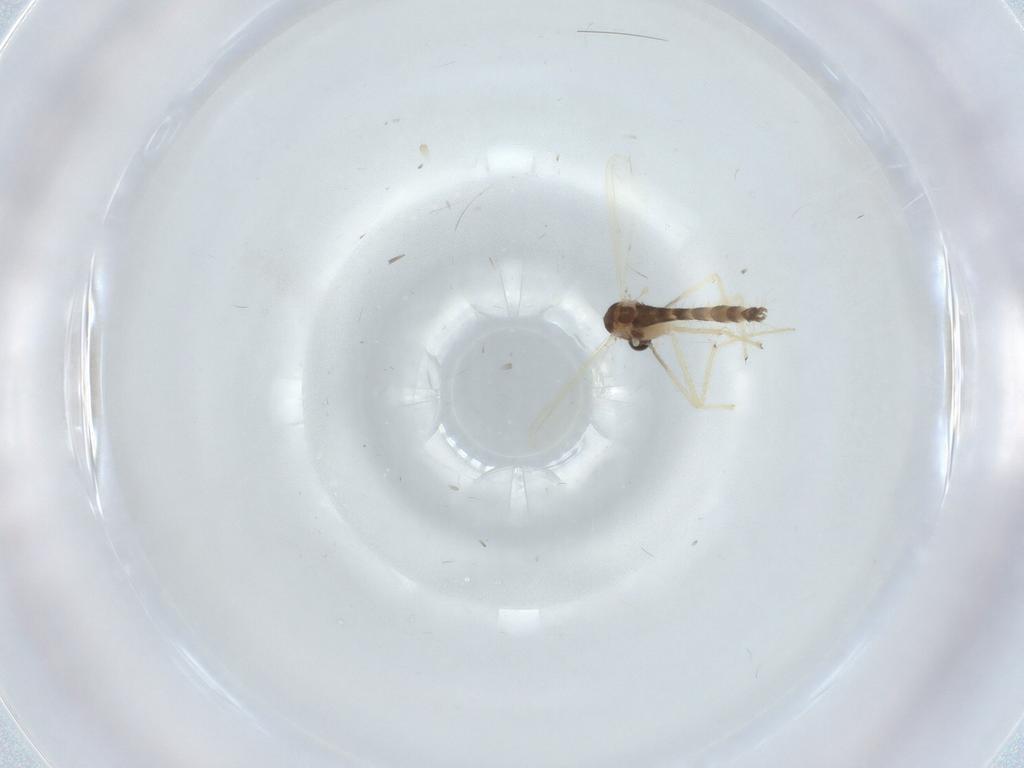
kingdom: Animalia
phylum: Arthropoda
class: Insecta
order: Diptera
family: Chironomidae
